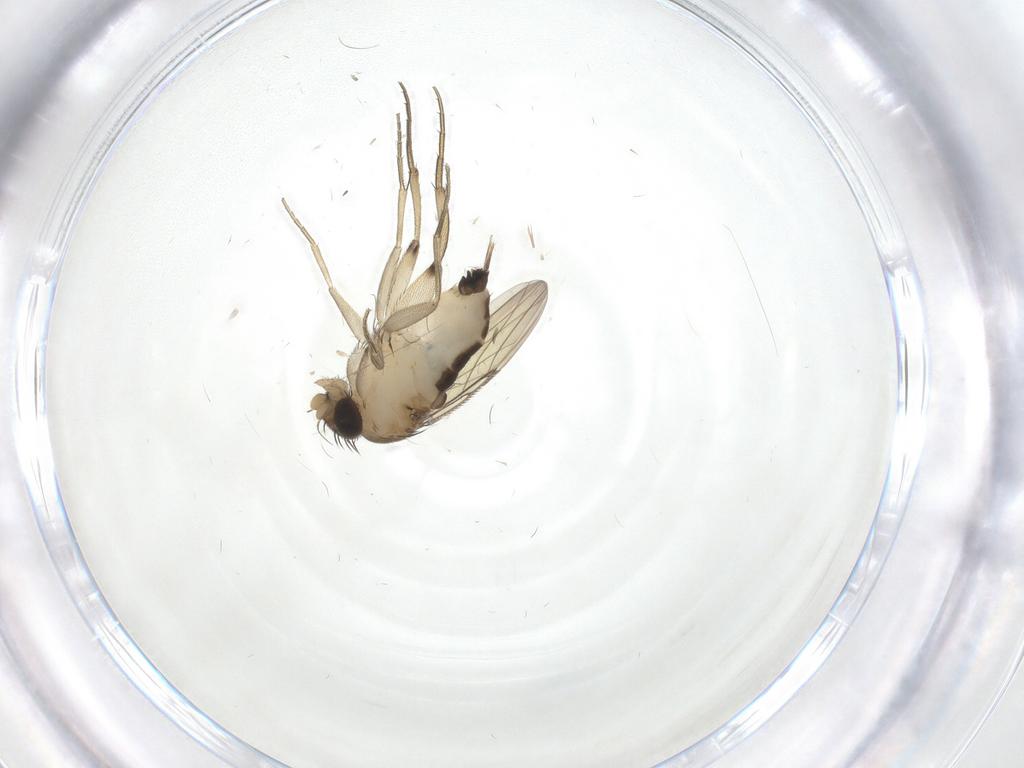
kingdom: Animalia
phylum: Arthropoda
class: Insecta
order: Diptera
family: Phoridae
